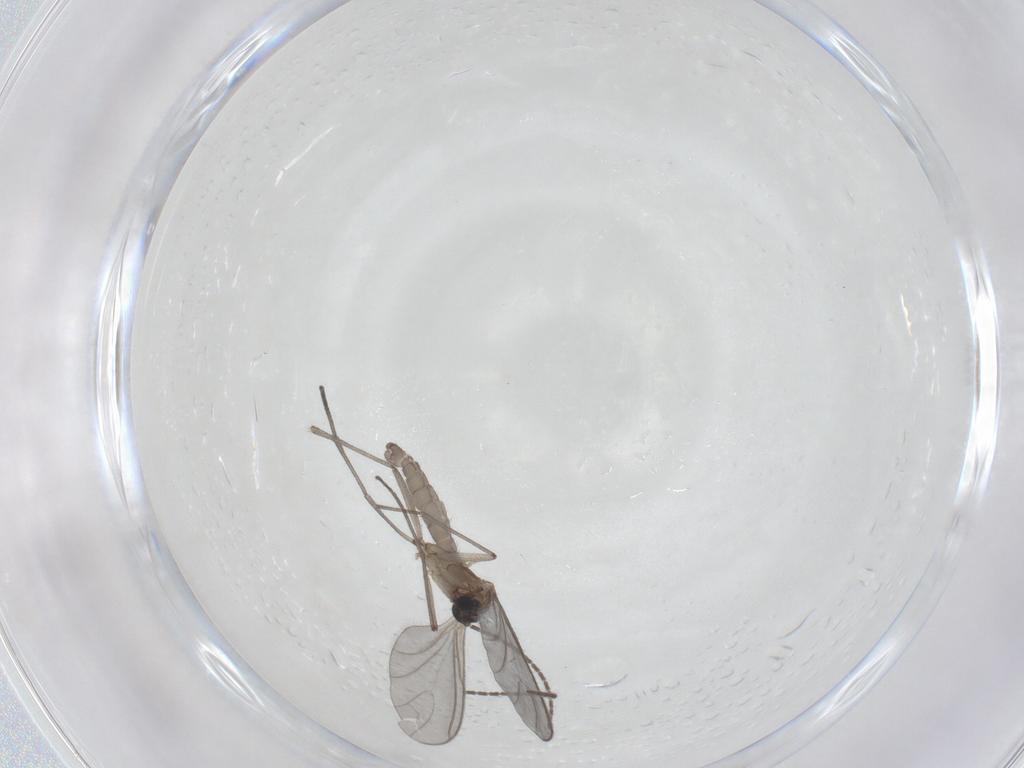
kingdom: Animalia
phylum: Arthropoda
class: Insecta
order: Diptera
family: Sciaridae
